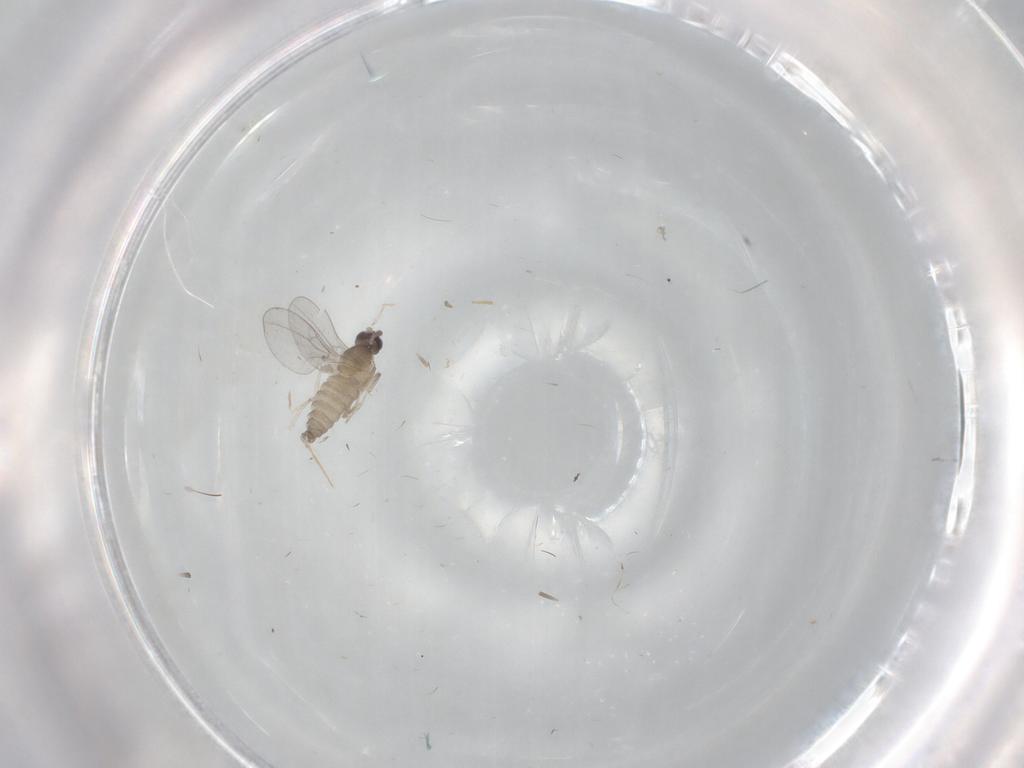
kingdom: Animalia
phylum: Arthropoda
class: Insecta
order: Diptera
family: Cecidomyiidae
